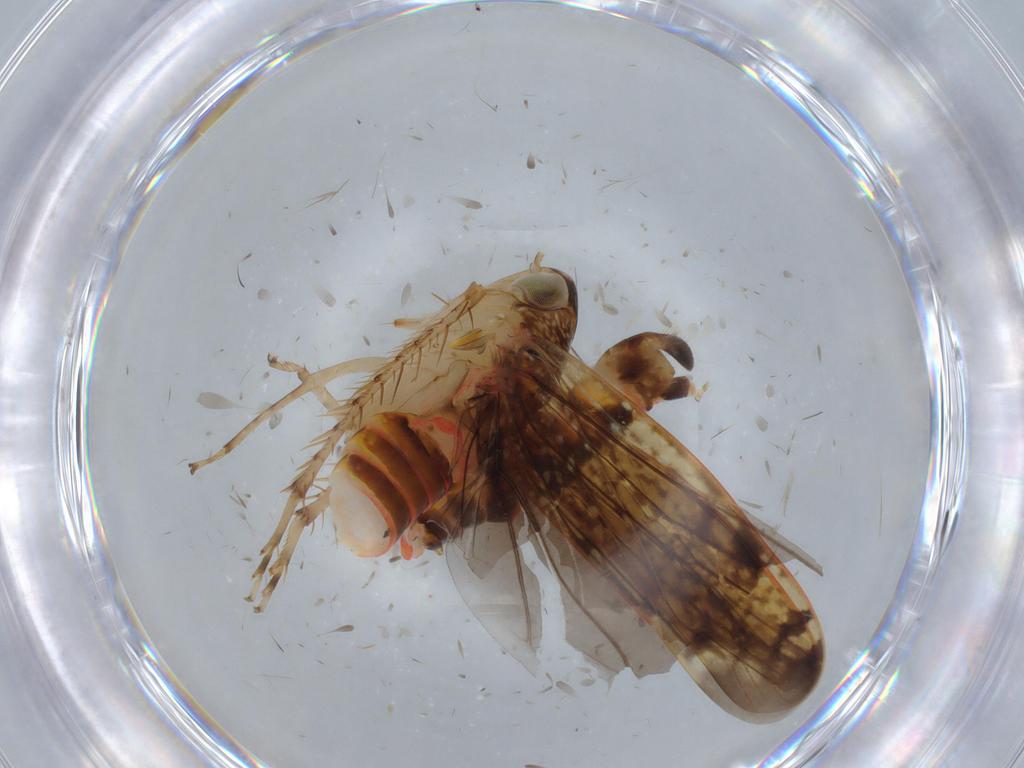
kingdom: Animalia
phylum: Arthropoda
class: Insecta
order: Hemiptera
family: Cicadellidae
